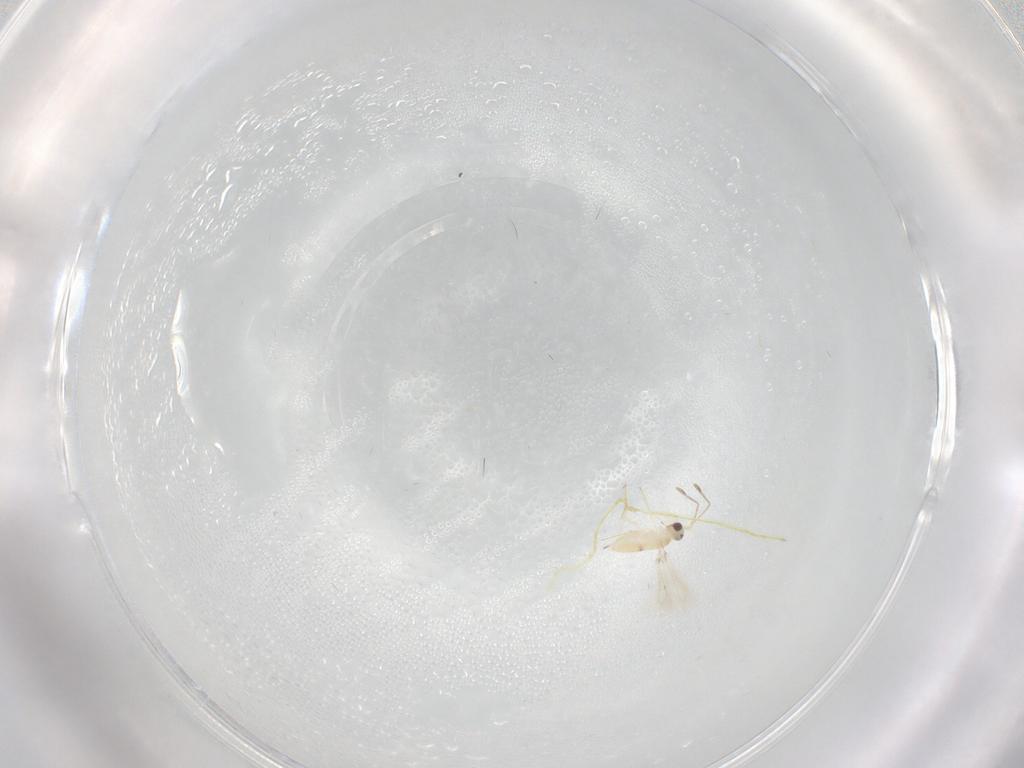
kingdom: Animalia
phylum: Arthropoda
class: Insecta
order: Hymenoptera
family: Mymaridae
